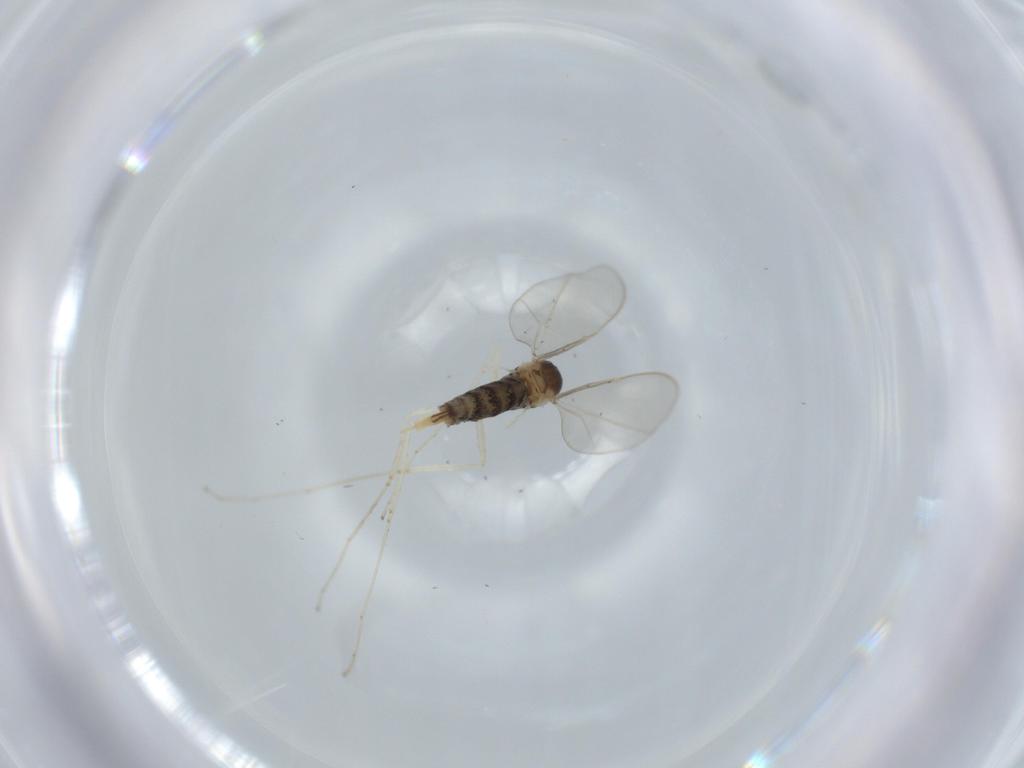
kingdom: Animalia
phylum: Arthropoda
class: Insecta
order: Diptera
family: Cecidomyiidae
